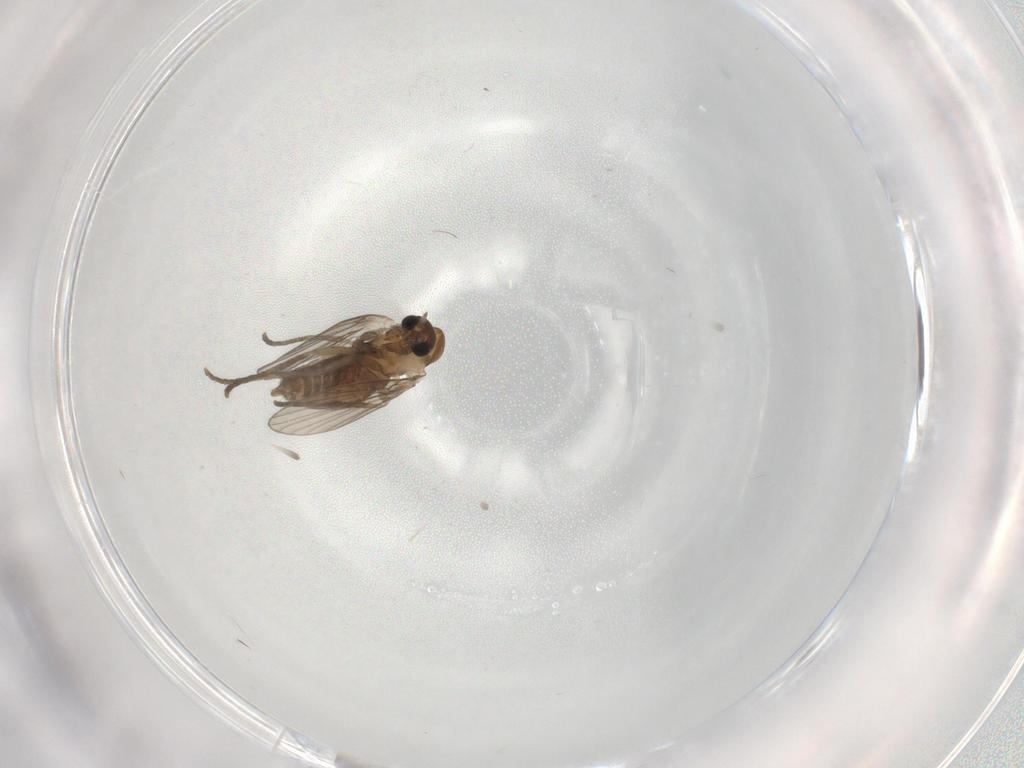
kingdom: Animalia
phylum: Arthropoda
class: Insecta
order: Diptera
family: Psychodidae
